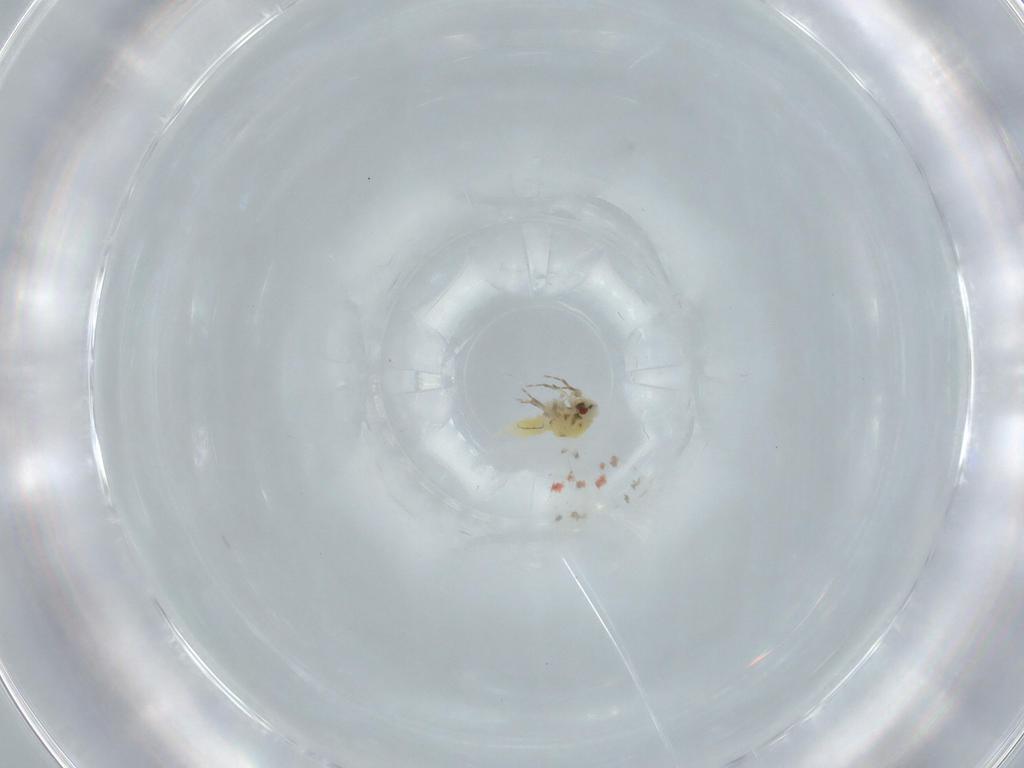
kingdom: Animalia
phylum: Arthropoda
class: Insecta
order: Hemiptera
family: Aleyrodidae
